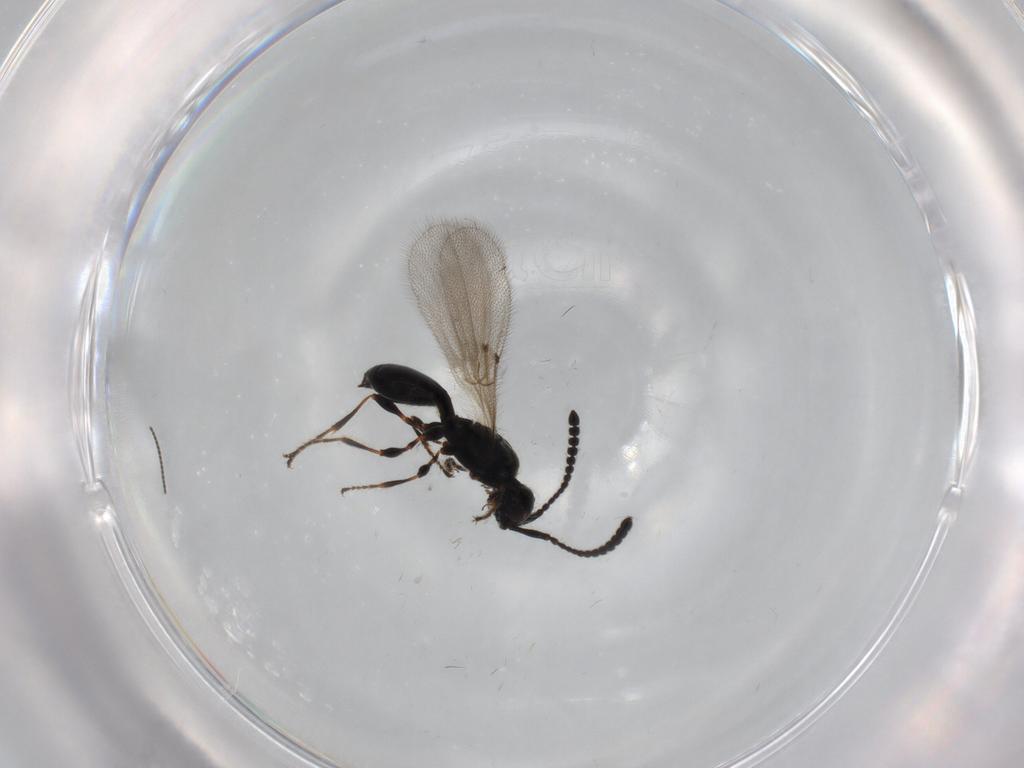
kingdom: Animalia
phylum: Arthropoda
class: Insecta
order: Hymenoptera
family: Diapriidae
